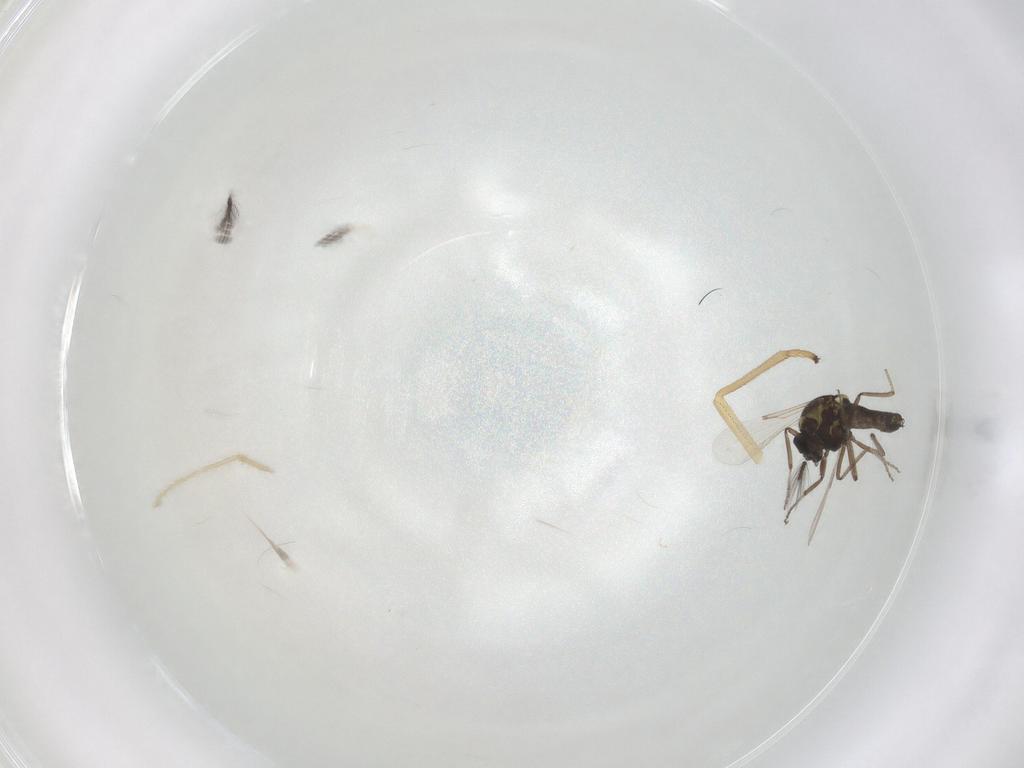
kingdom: Animalia
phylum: Arthropoda
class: Insecta
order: Diptera
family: Ceratopogonidae
